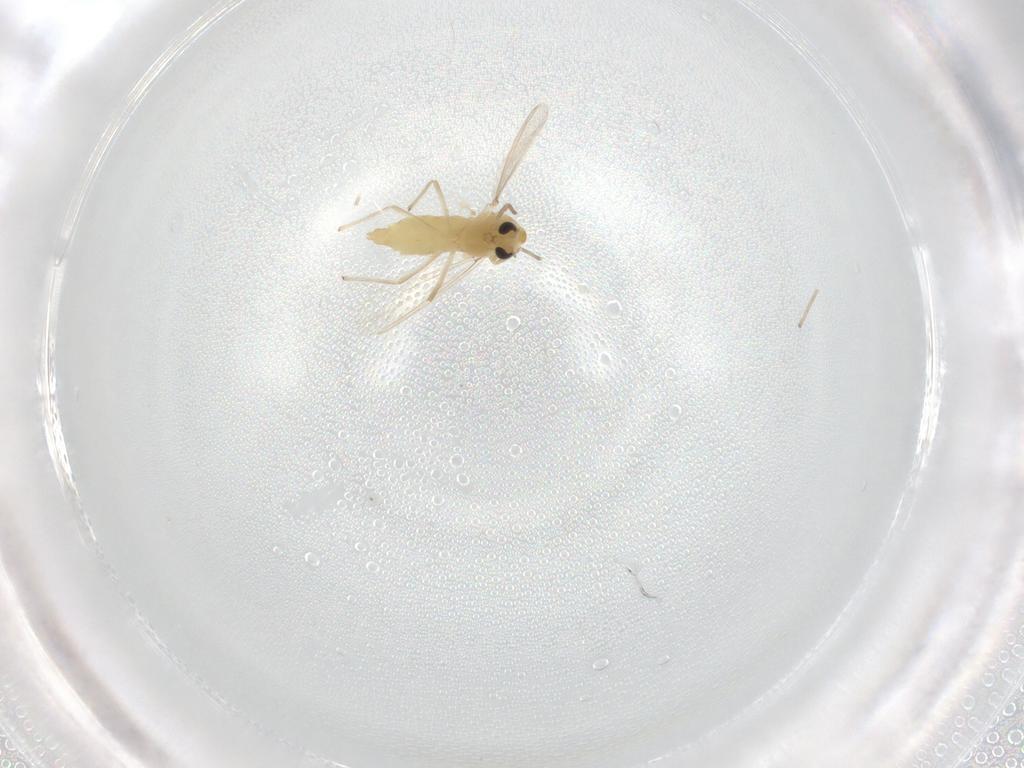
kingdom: Animalia
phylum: Arthropoda
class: Insecta
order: Diptera
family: Chironomidae
